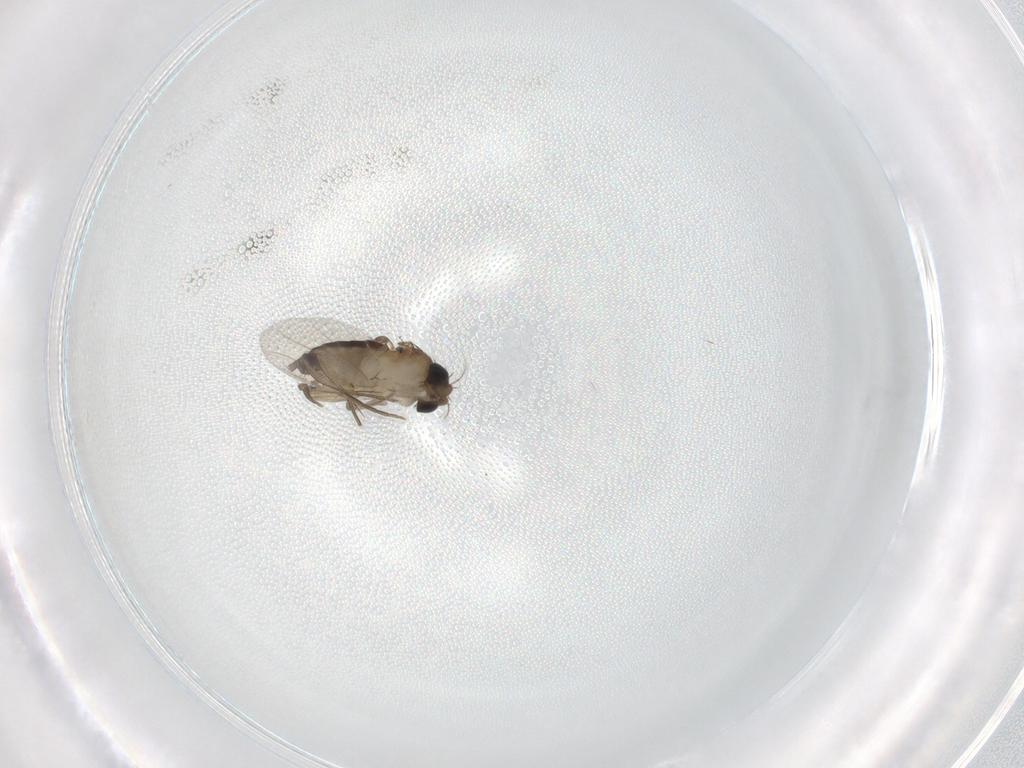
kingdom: Animalia
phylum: Arthropoda
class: Insecta
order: Diptera
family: Phoridae
